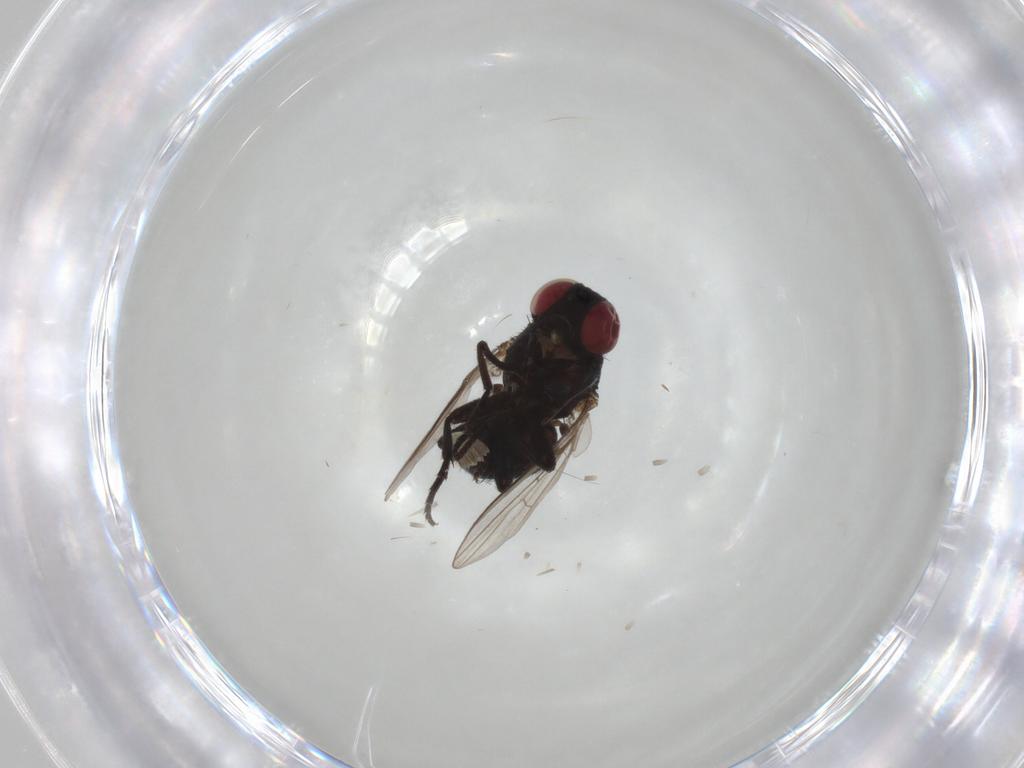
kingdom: Animalia
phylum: Arthropoda
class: Insecta
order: Diptera
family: Agromyzidae
